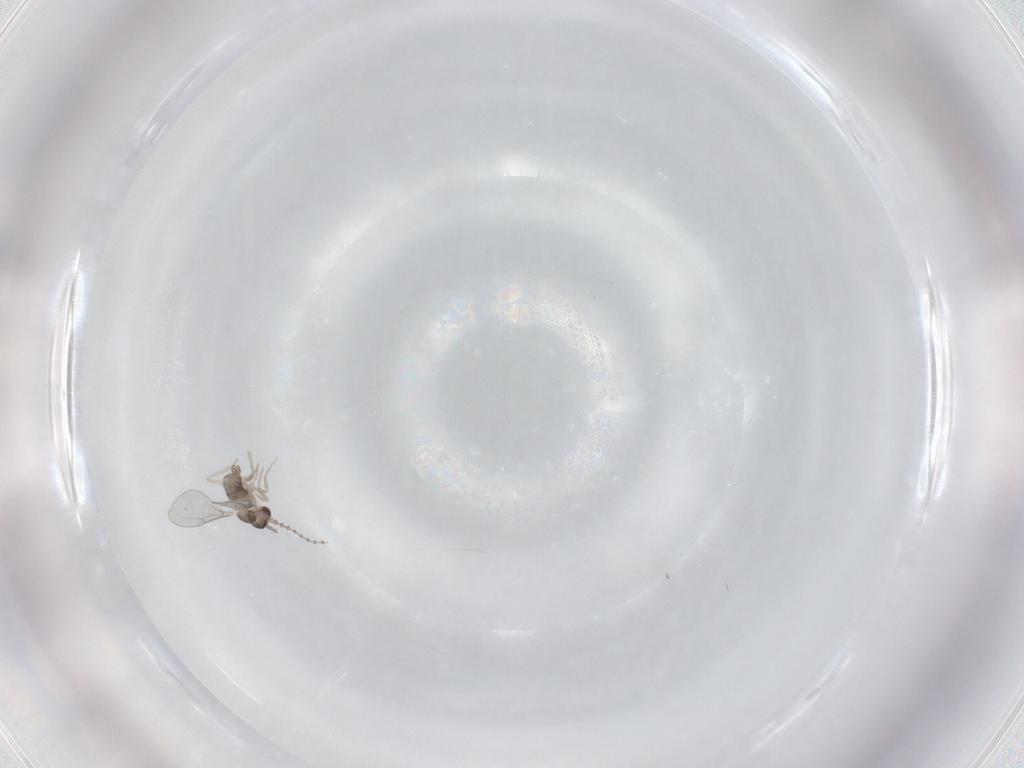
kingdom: Animalia
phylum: Arthropoda
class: Insecta
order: Diptera
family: Cecidomyiidae
